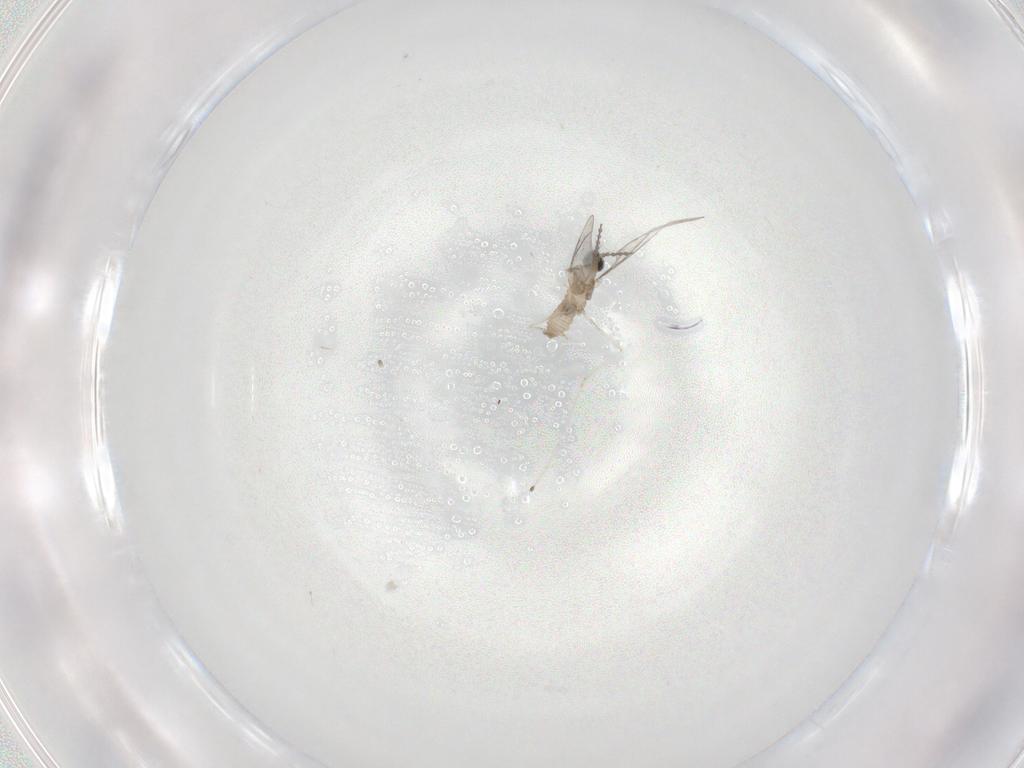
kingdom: Animalia
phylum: Arthropoda
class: Insecta
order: Diptera
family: Cecidomyiidae
